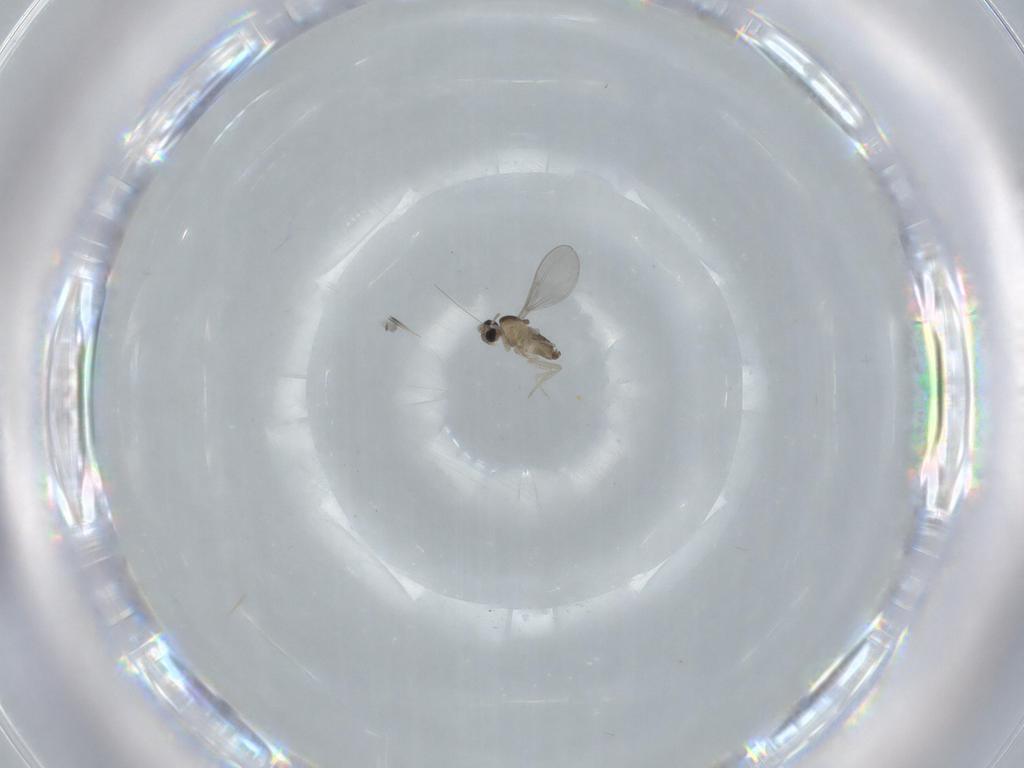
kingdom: Animalia
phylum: Arthropoda
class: Insecta
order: Diptera
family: Cecidomyiidae
